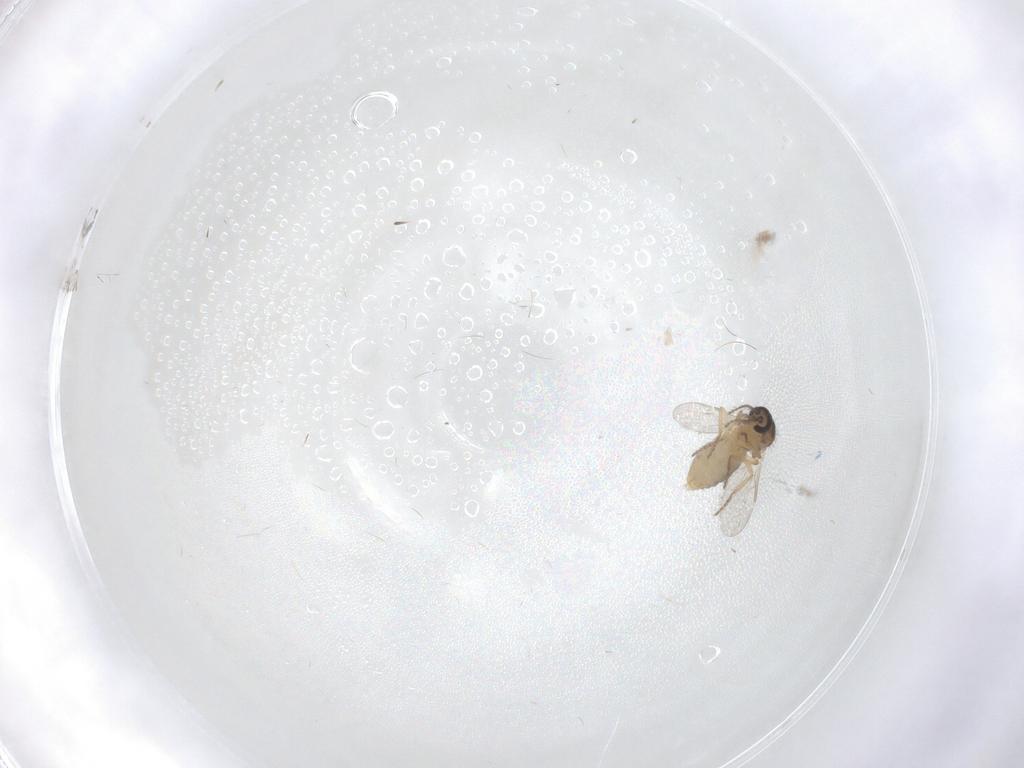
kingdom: Animalia
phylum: Arthropoda
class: Insecta
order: Diptera
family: Ceratopogonidae
